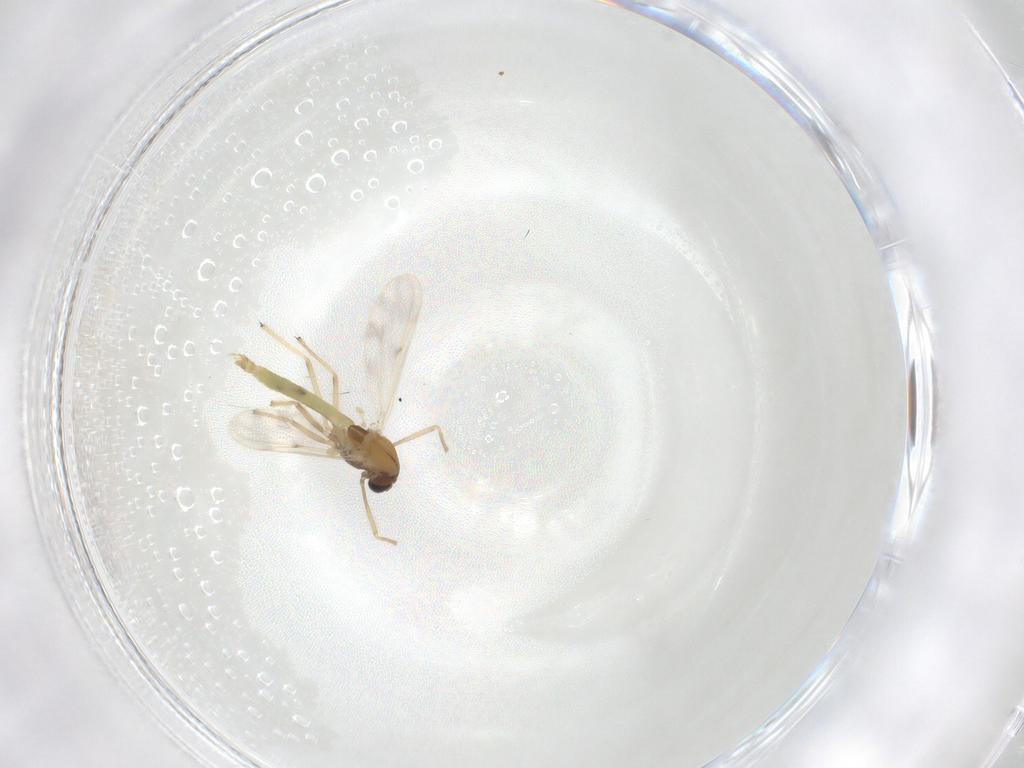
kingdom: Animalia
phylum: Arthropoda
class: Insecta
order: Diptera
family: Chironomidae
